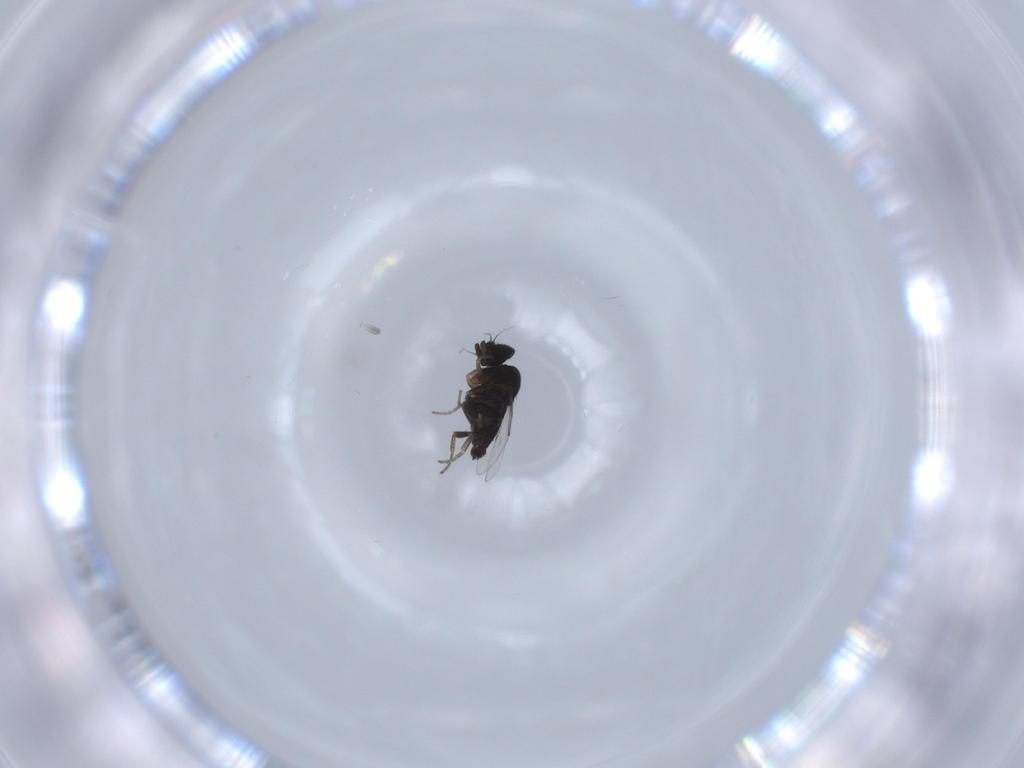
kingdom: Animalia
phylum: Arthropoda
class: Insecta
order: Diptera
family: Phoridae
